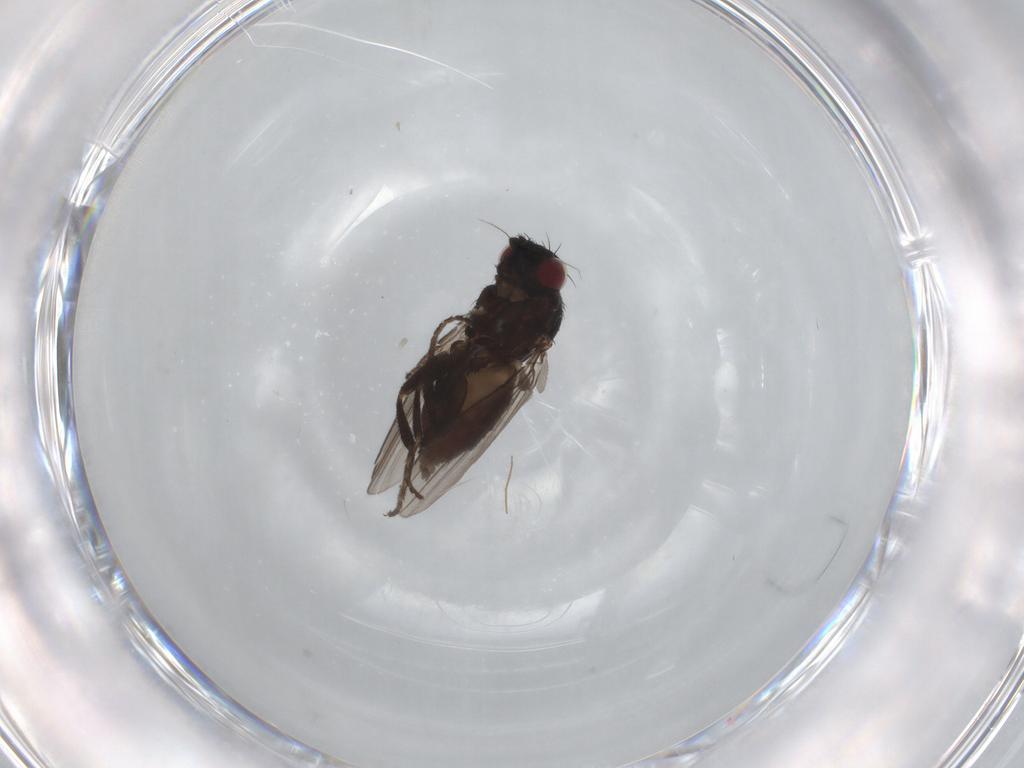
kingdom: Animalia
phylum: Arthropoda
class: Insecta
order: Diptera
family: Milichiidae
